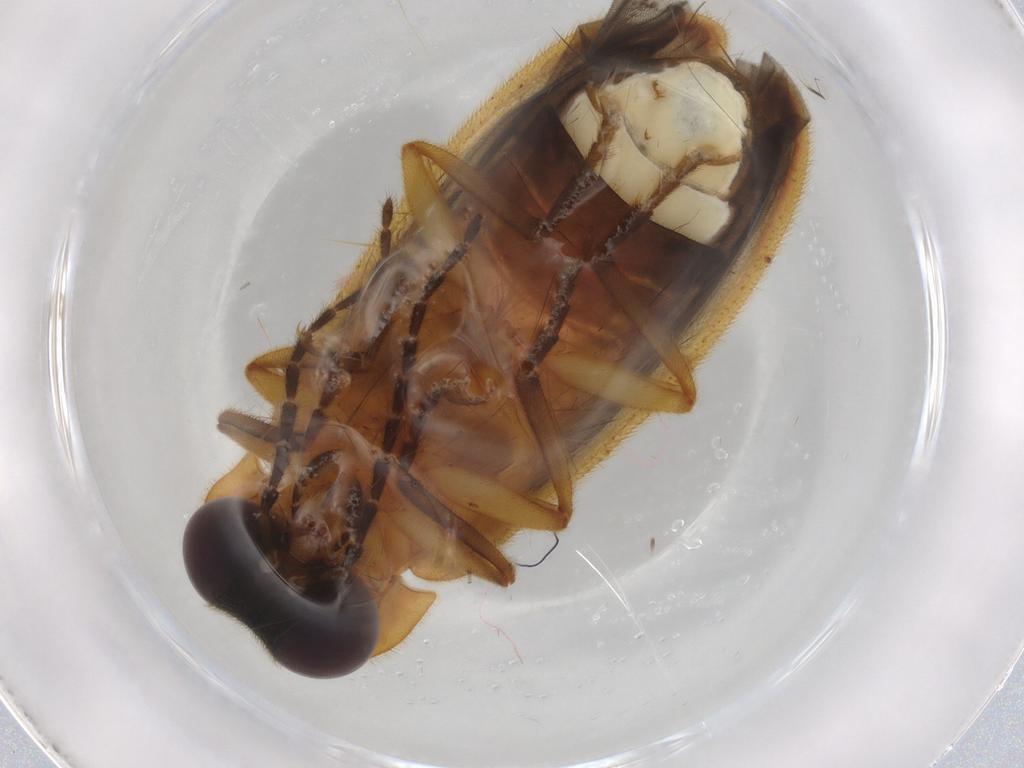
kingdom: Animalia
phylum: Arthropoda
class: Insecta
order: Coleoptera
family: Lampyridae
